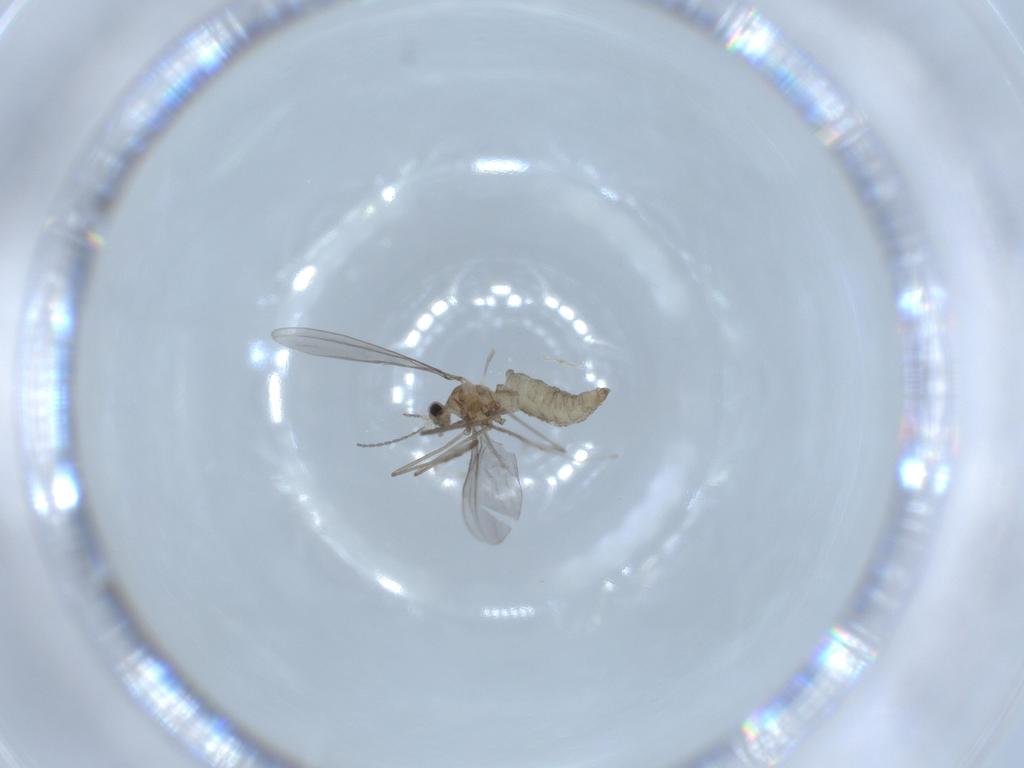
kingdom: Animalia
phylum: Arthropoda
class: Insecta
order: Diptera
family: Cecidomyiidae
